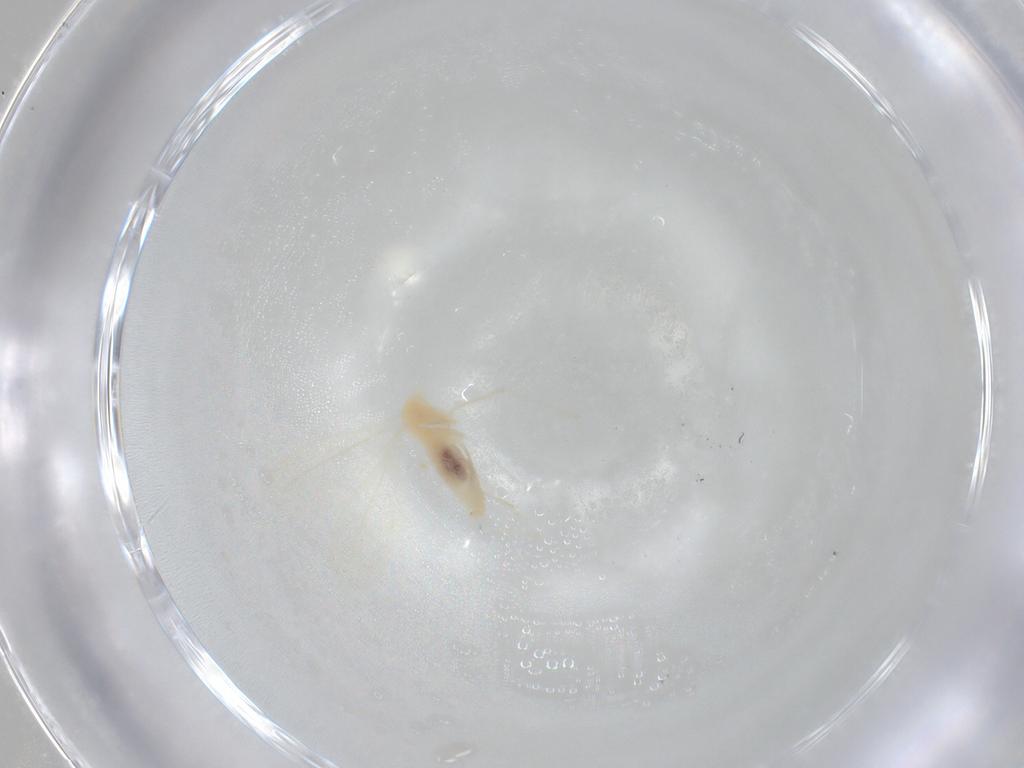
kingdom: Animalia
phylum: Arthropoda
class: Insecta
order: Diptera
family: Cecidomyiidae
